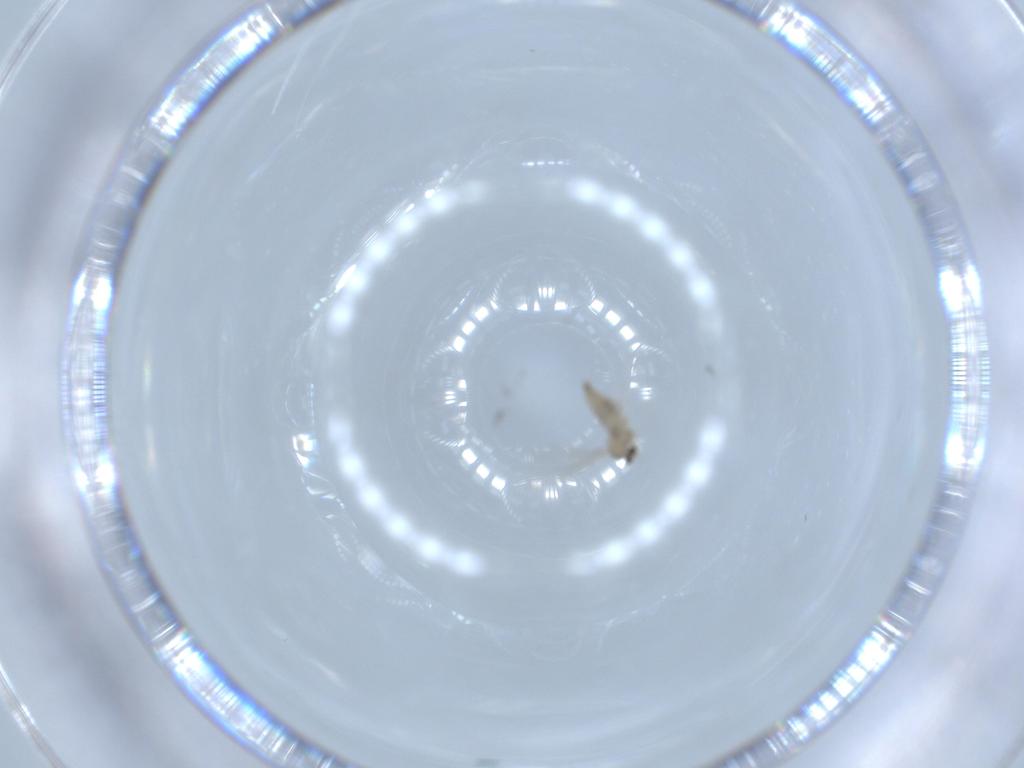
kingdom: Animalia
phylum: Arthropoda
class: Insecta
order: Diptera
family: Cecidomyiidae
